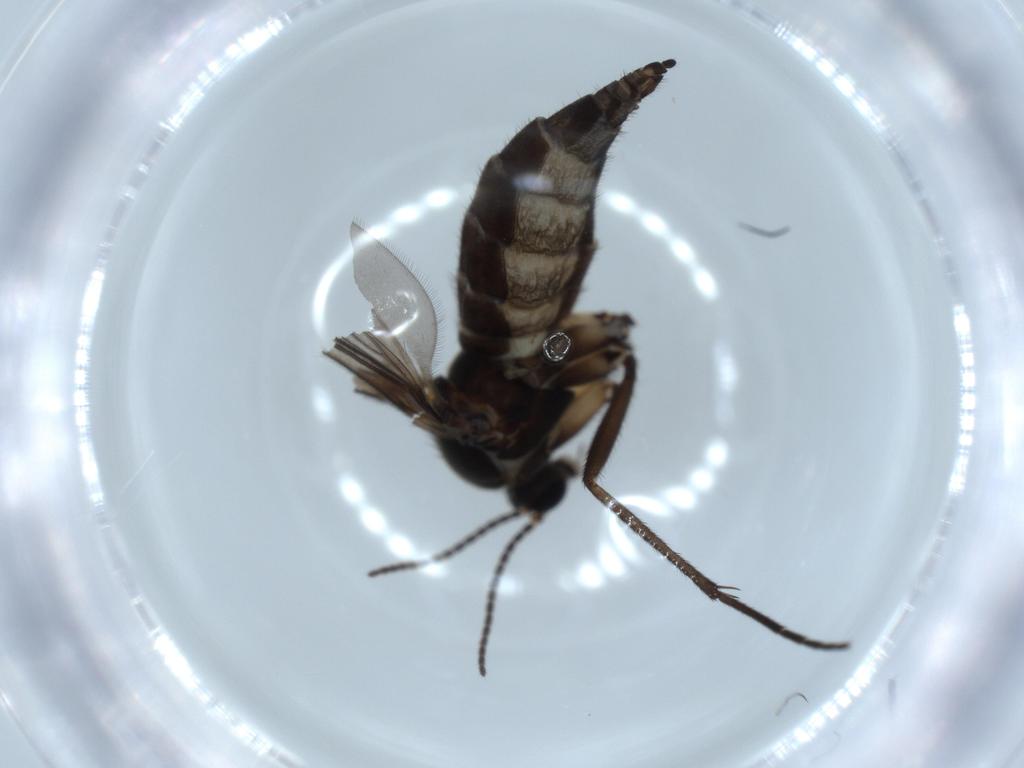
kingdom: Animalia
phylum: Arthropoda
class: Insecta
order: Diptera
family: Sciaridae
